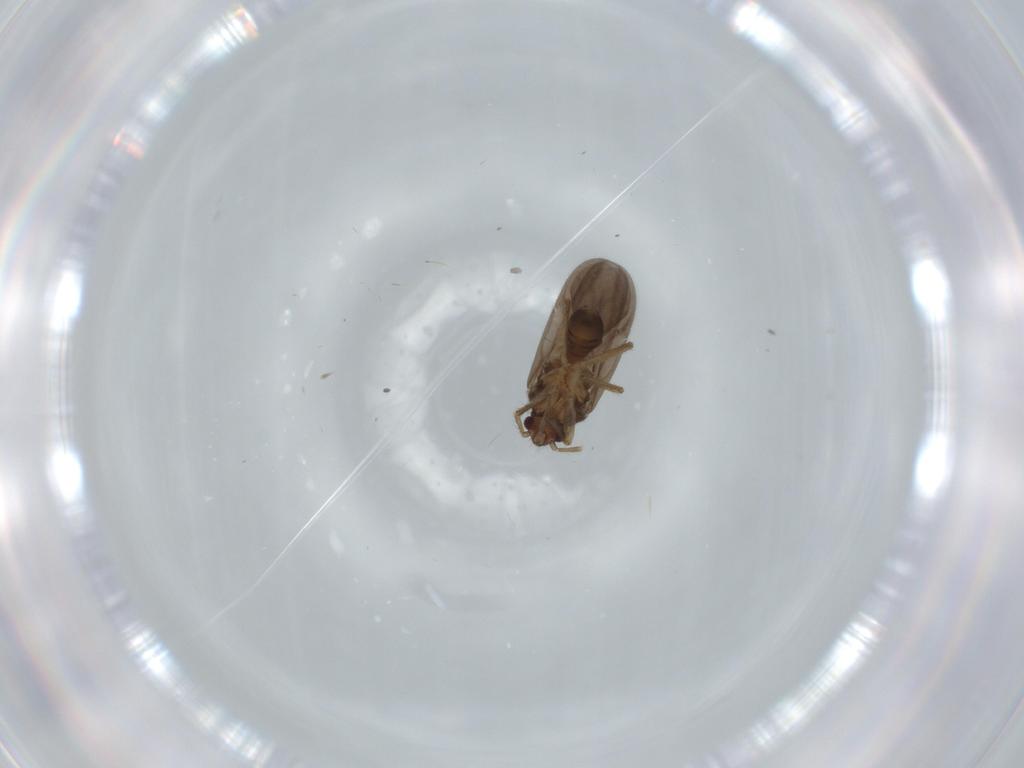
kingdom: Animalia
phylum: Arthropoda
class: Insecta
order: Hemiptera
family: Ceratocombidae
